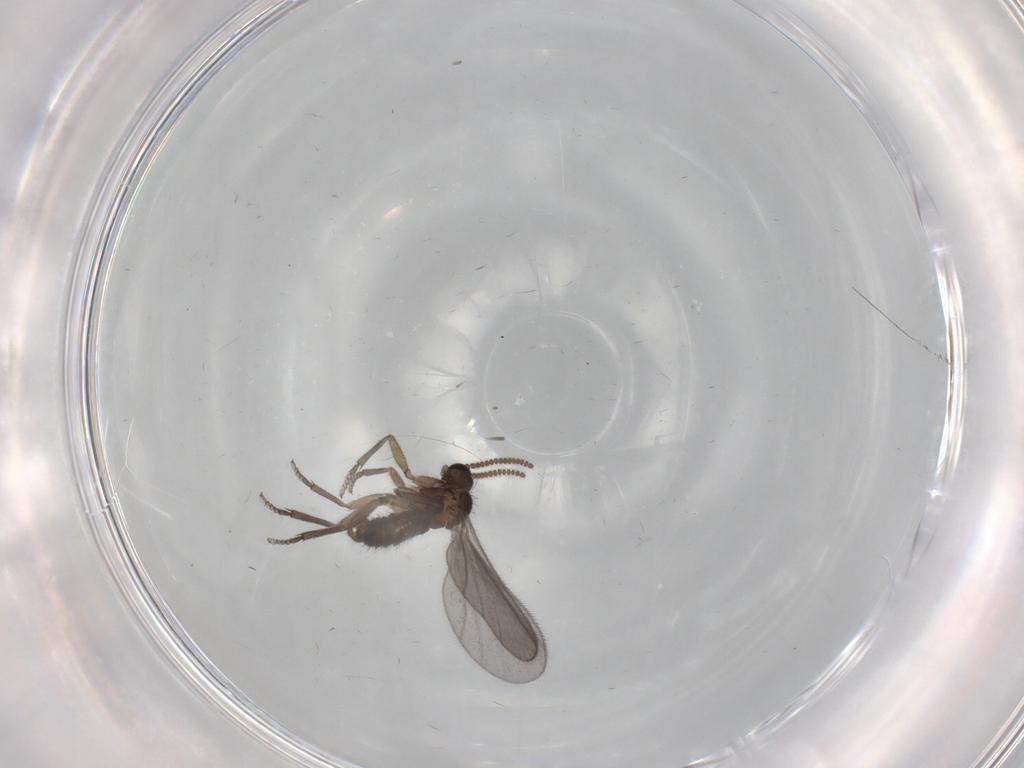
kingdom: Animalia
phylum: Arthropoda
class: Insecta
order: Diptera
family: Sciaridae
